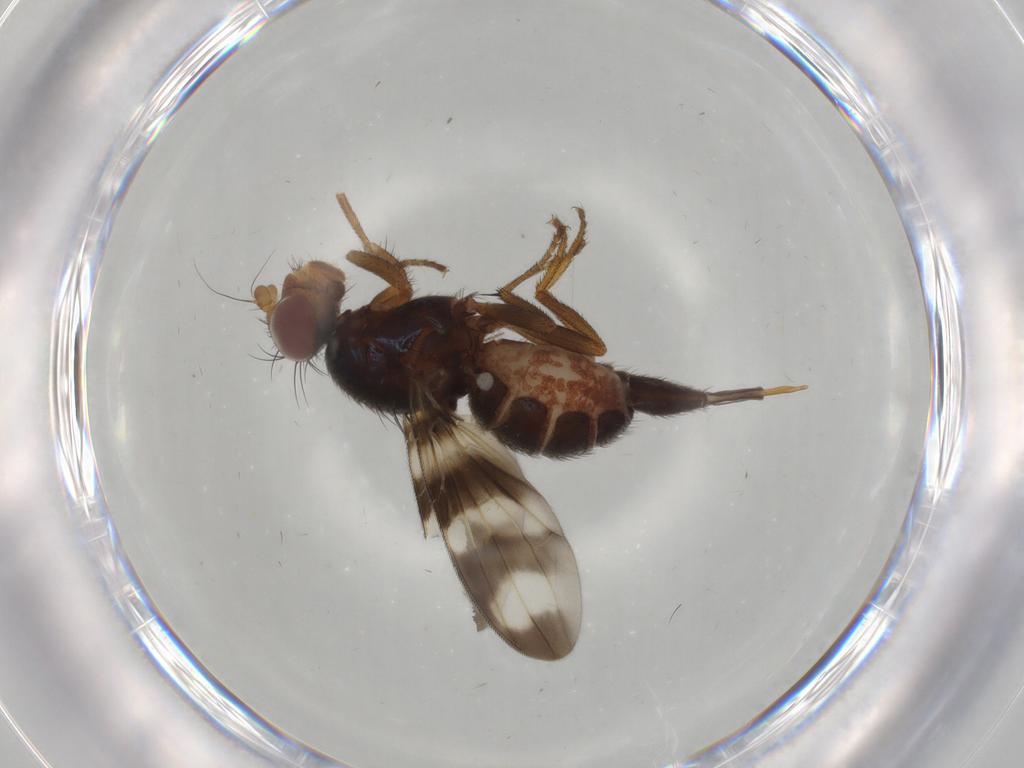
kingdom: Animalia
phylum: Arthropoda
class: Insecta
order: Diptera
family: Ulidiidae
